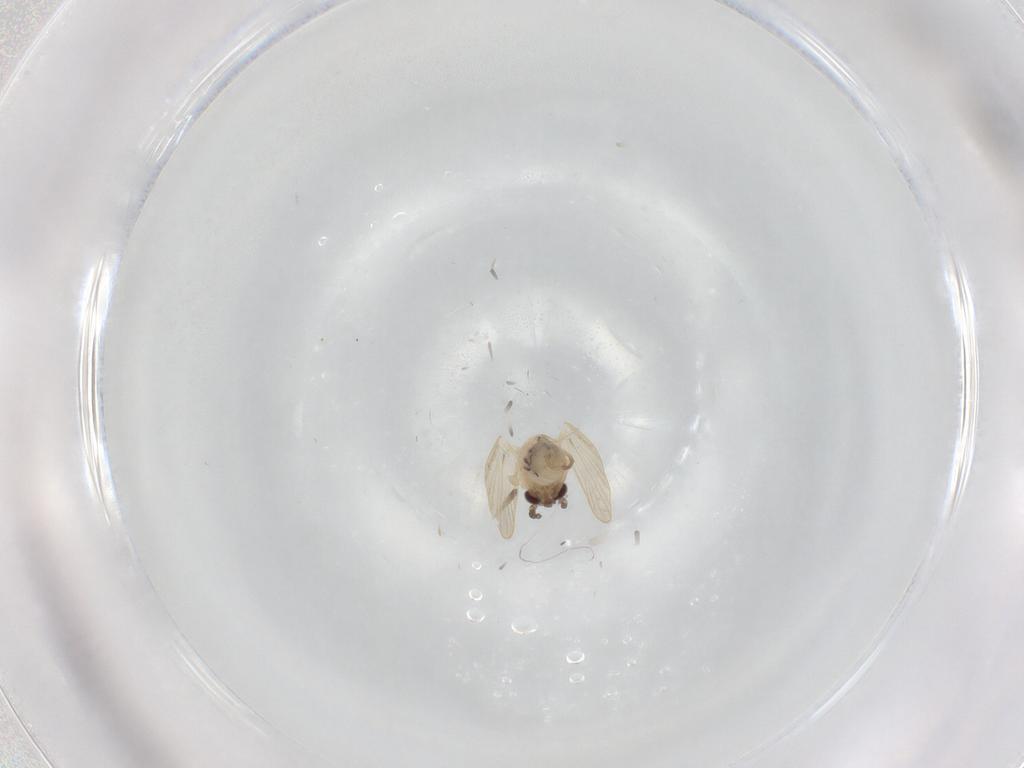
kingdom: Animalia
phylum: Arthropoda
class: Insecta
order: Diptera
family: Psychodidae
